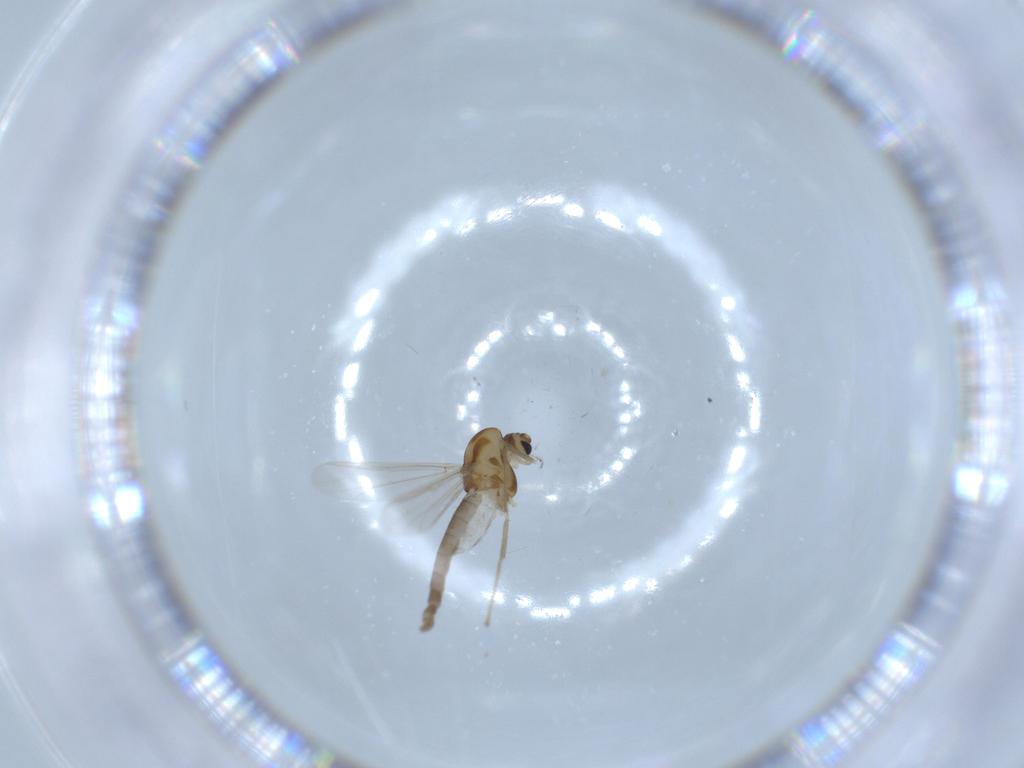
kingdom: Animalia
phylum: Arthropoda
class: Insecta
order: Diptera
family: Chironomidae
